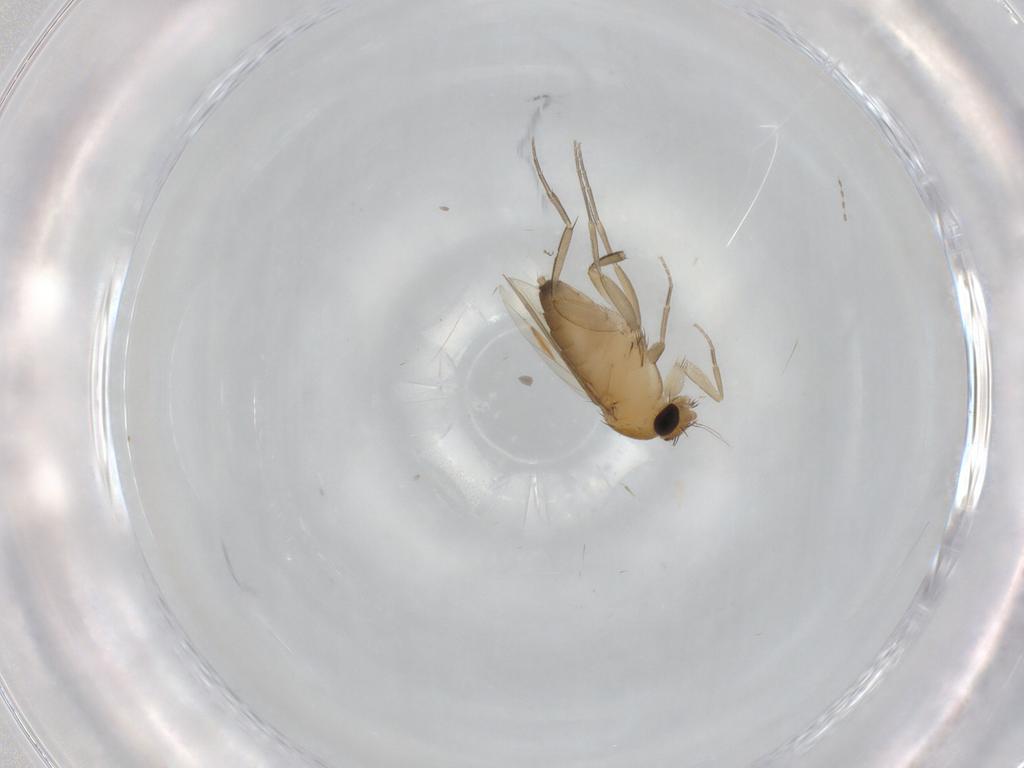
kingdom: Animalia
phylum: Arthropoda
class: Insecta
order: Diptera
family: Phoridae
